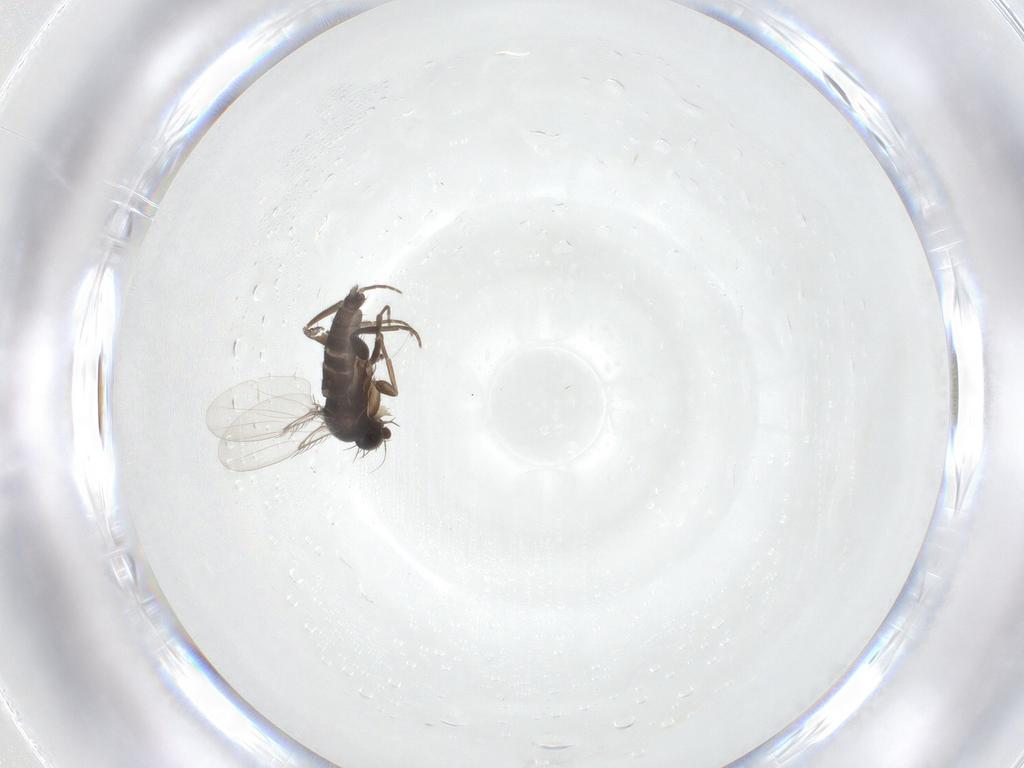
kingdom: Animalia
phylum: Arthropoda
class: Insecta
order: Diptera
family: Phoridae
